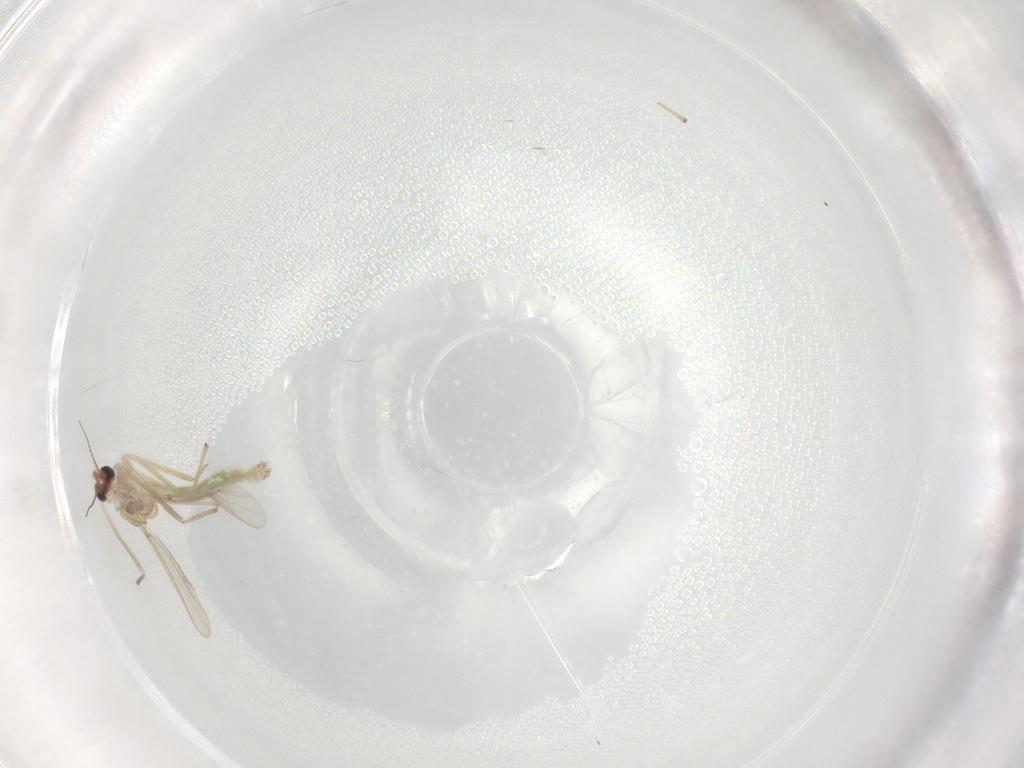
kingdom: Animalia
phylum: Arthropoda
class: Insecta
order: Diptera
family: Chironomidae
